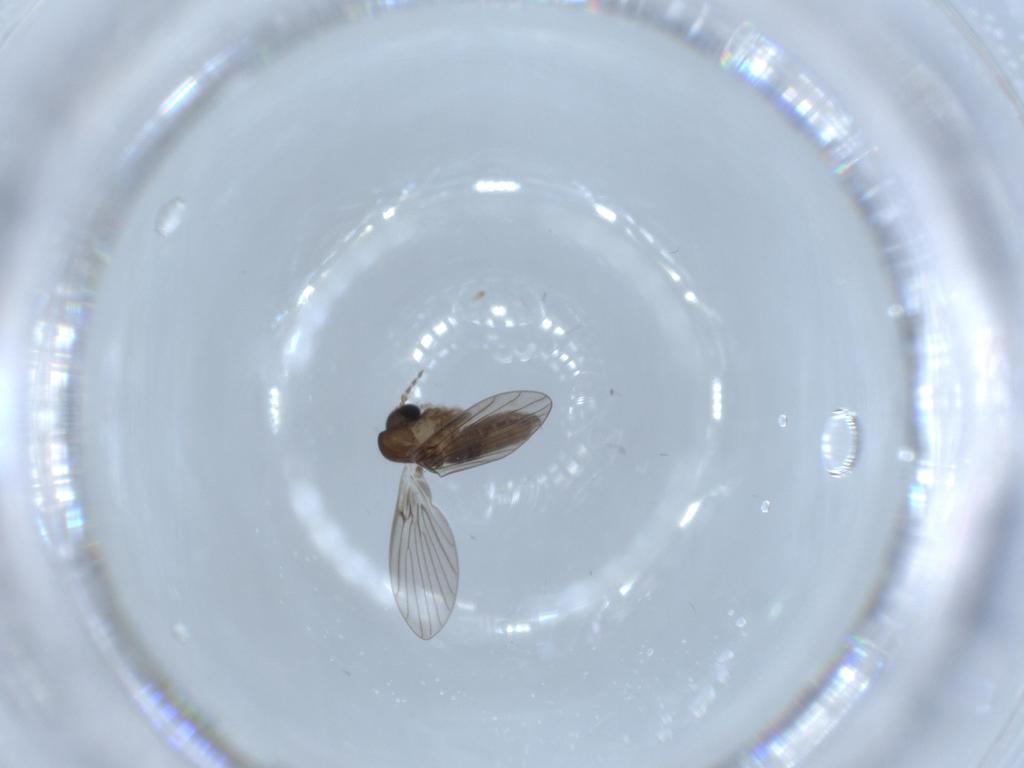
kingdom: Animalia
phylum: Arthropoda
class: Insecta
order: Diptera
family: Psychodidae
